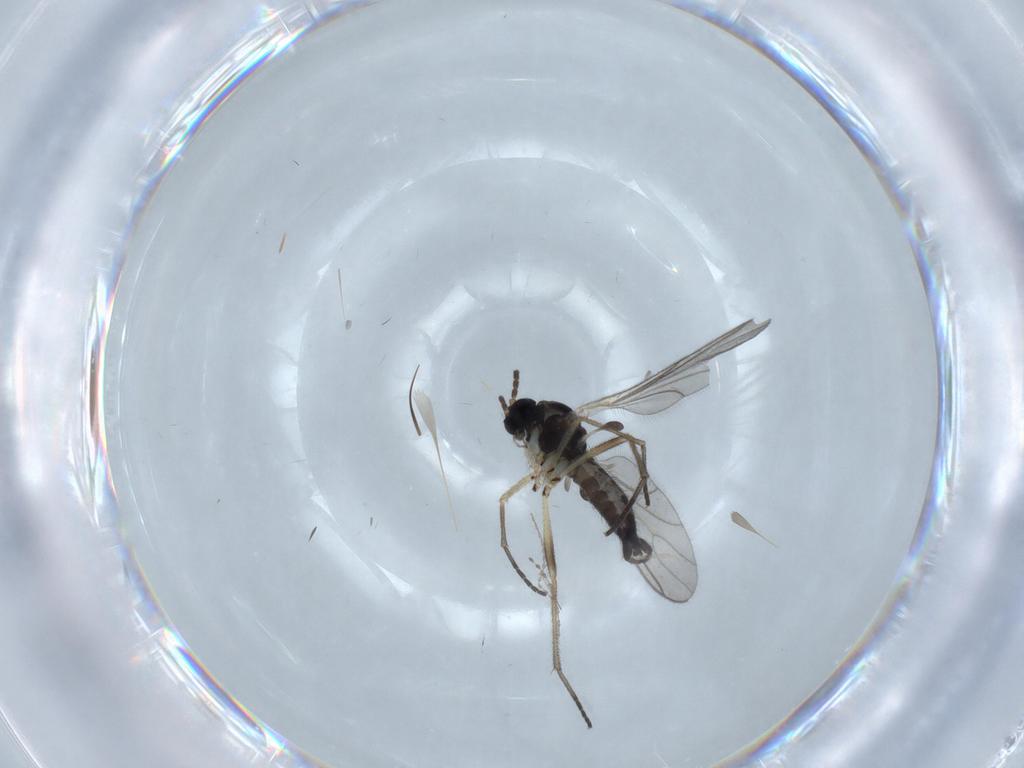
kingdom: Animalia
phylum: Arthropoda
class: Insecta
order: Diptera
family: Sciaridae
